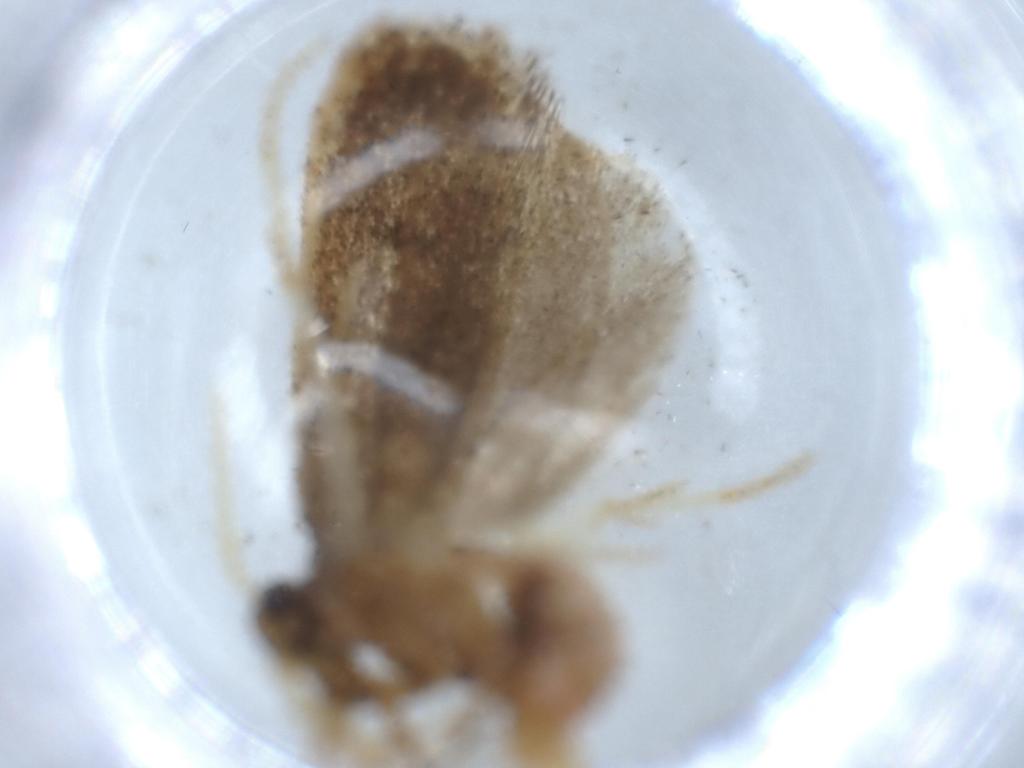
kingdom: Animalia
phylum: Arthropoda
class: Insecta
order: Lepidoptera
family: Lecithoceridae
